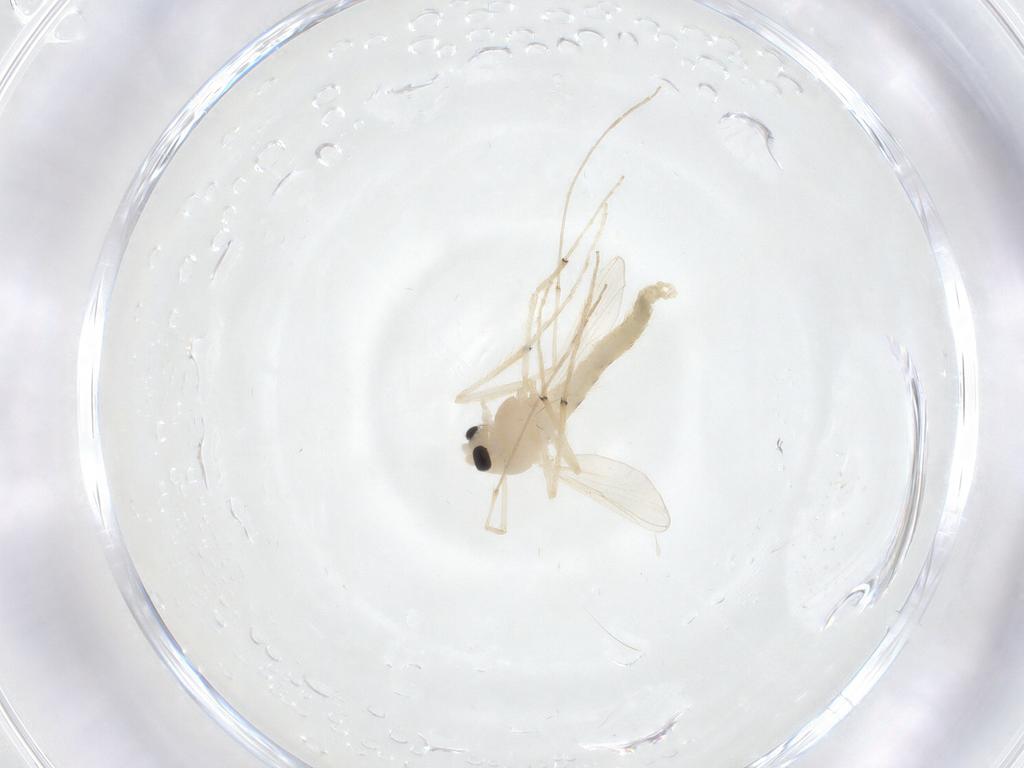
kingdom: Animalia
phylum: Arthropoda
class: Insecta
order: Diptera
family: Chironomidae
